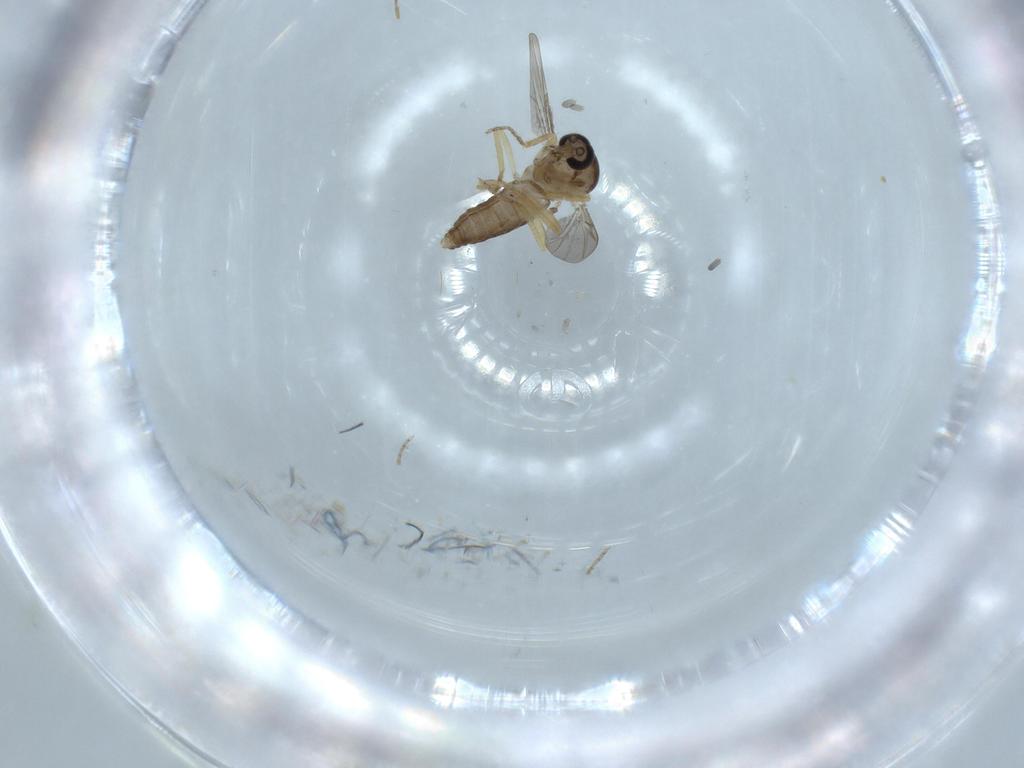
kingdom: Animalia
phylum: Arthropoda
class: Insecta
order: Diptera
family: Ceratopogonidae
